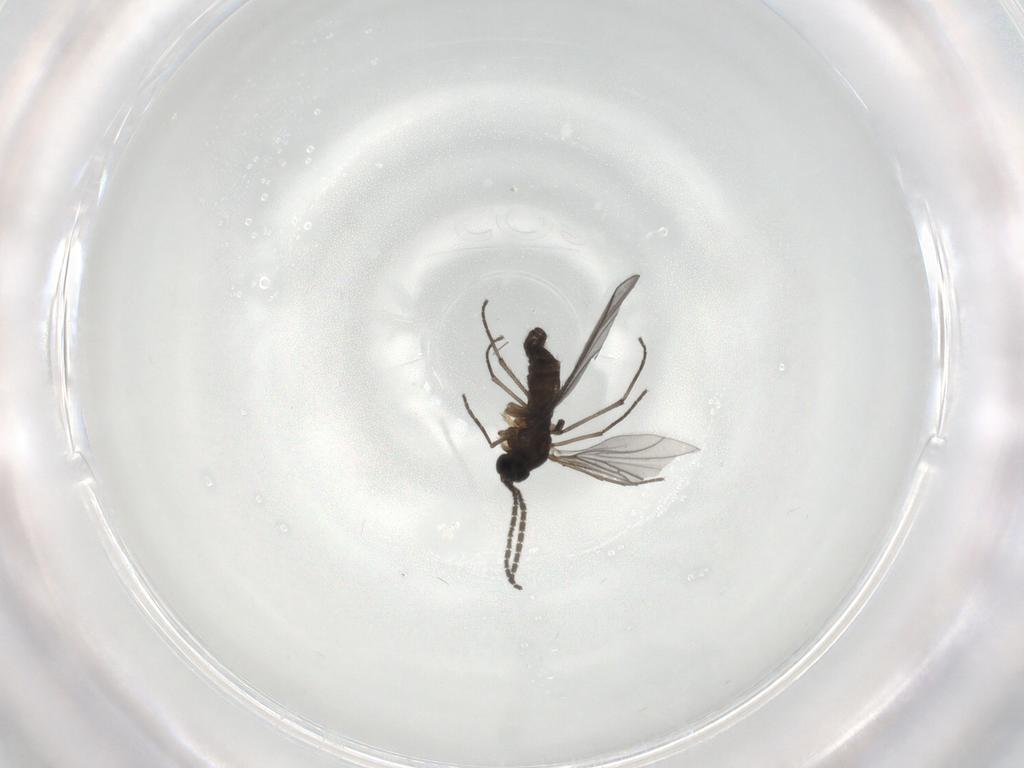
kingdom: Animalia
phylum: Arthropoda
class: Insecta
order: Diptera
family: Sciaridae
